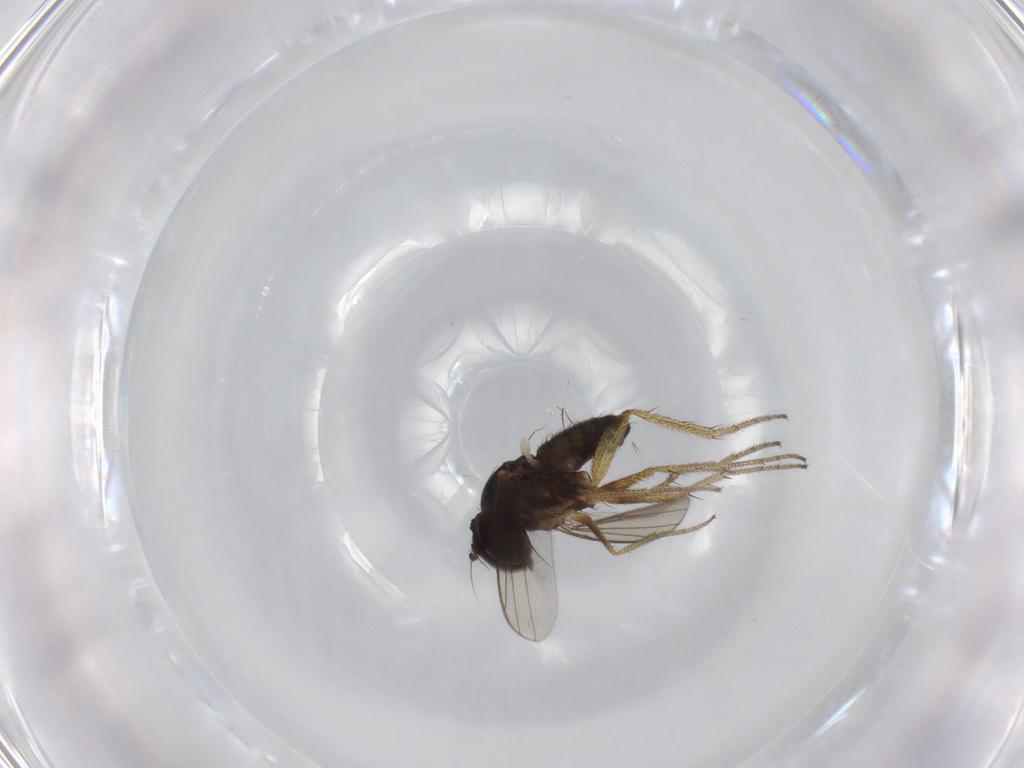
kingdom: Animalia
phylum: Arthropoda
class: Insecta
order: Diptera
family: Dolichopodidae
